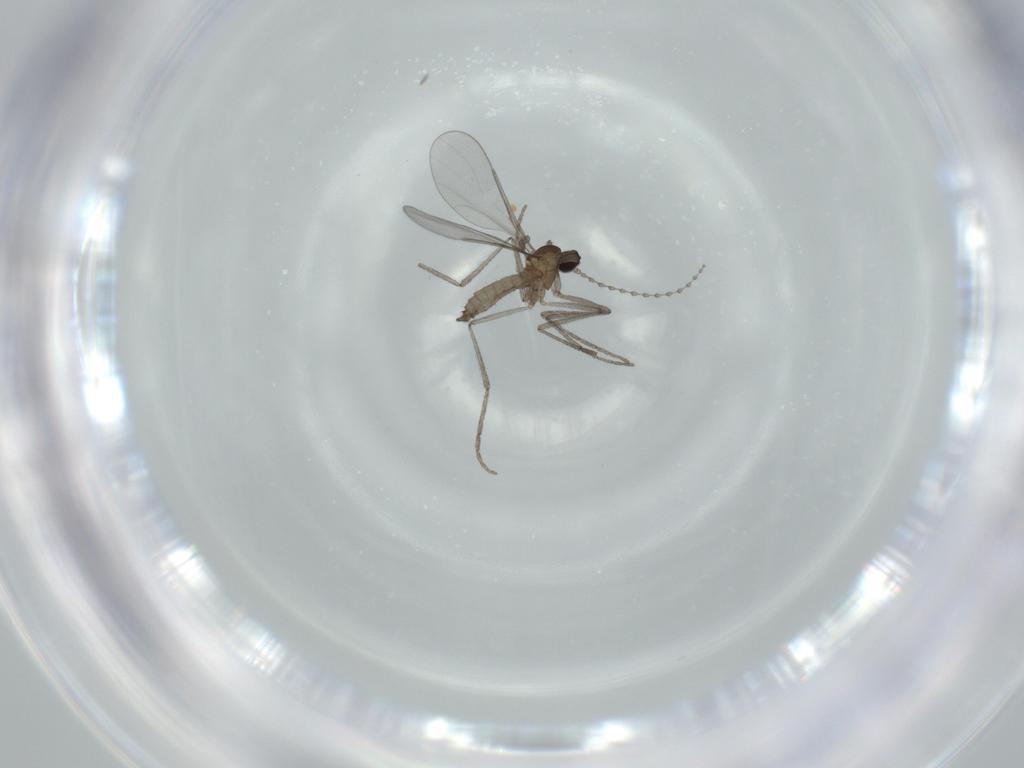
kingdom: Animalia
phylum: Arthropoda
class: Insecta
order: Diptera
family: Cecidomyiidae
